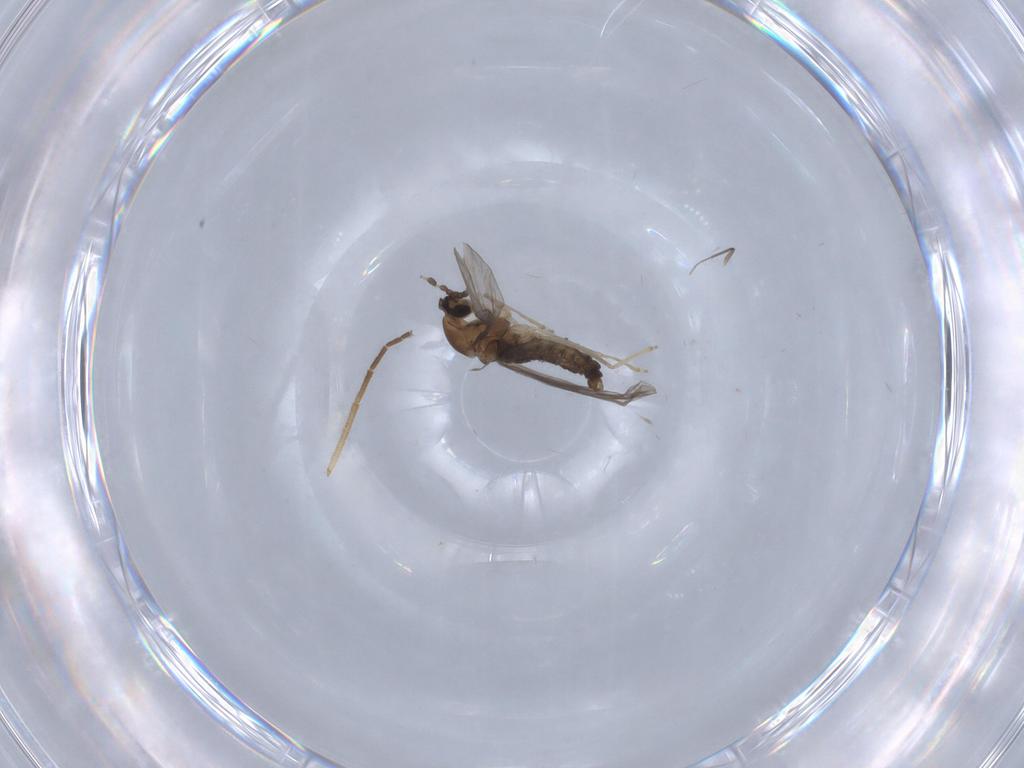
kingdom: Animalia
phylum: Arthropoda
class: Insecta
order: Diptera
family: Cecidomyiidae
